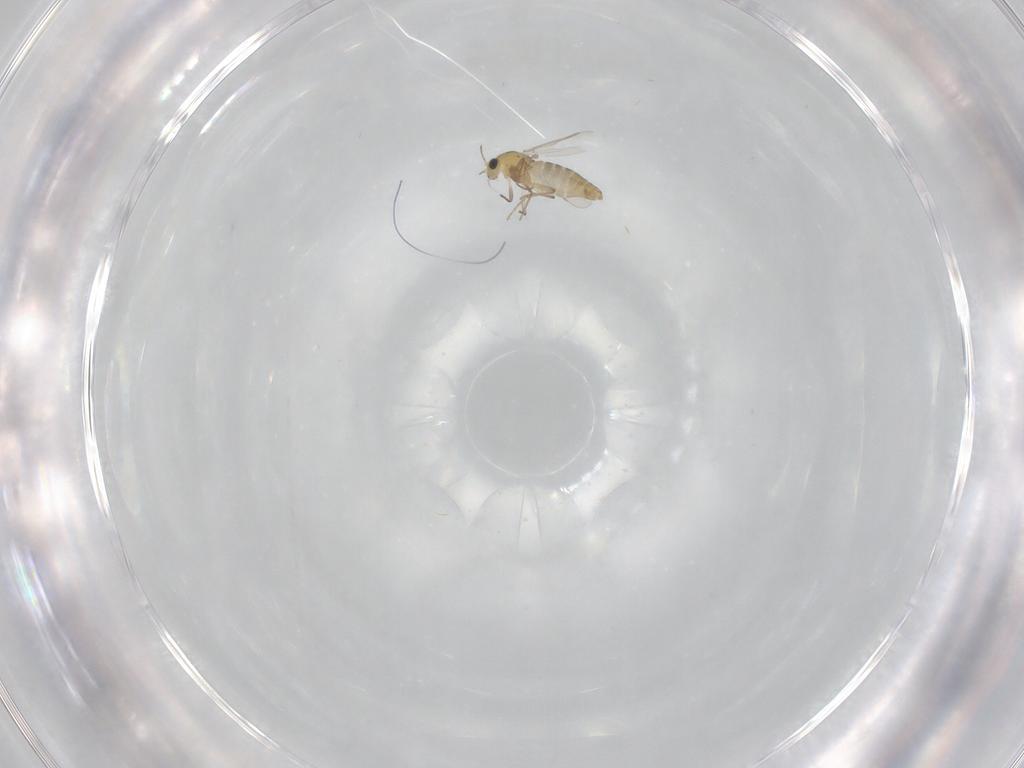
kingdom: Animalia
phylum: Arthropoda
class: Insecta
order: Diptera
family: Chironomidae
